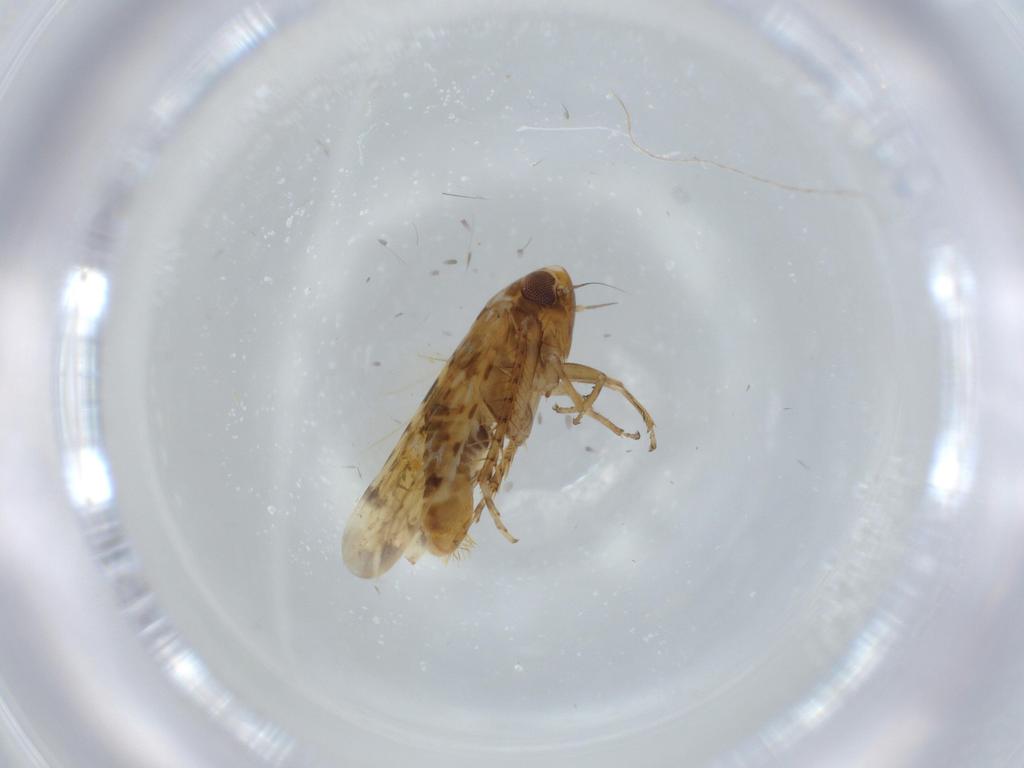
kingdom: Animalia
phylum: Arthropoda
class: Insecta
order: Hemiptera
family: Cicadellidae
